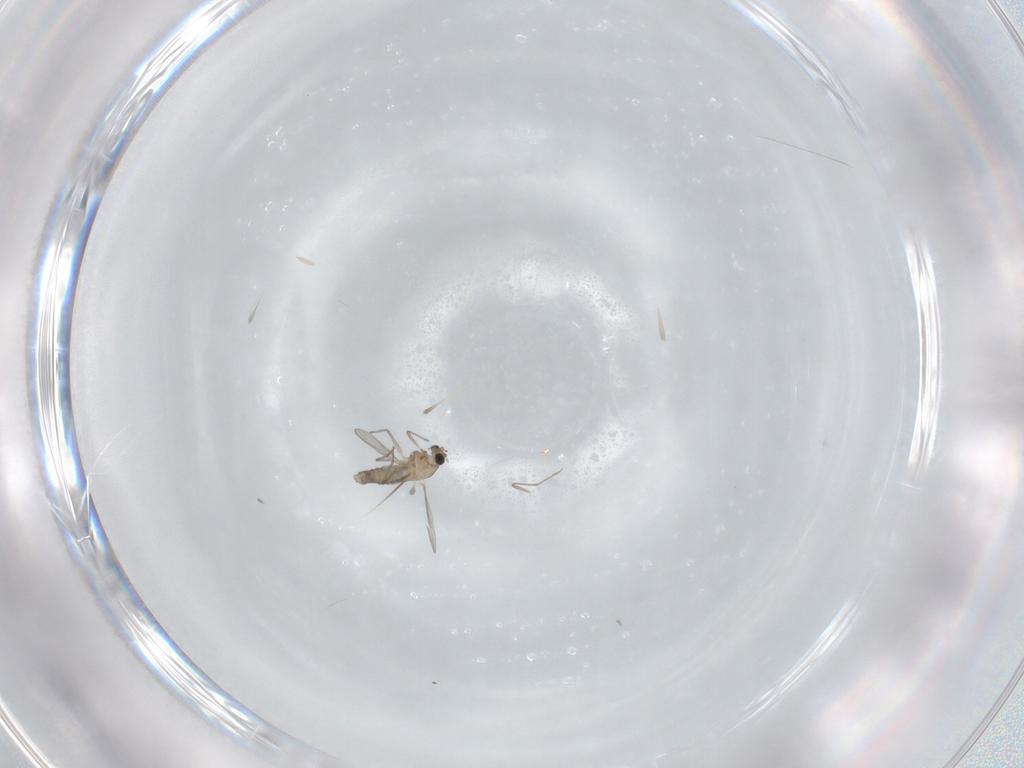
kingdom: Animalia
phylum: Arthropoda
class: Insecta
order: Diptera
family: Chironomidae
